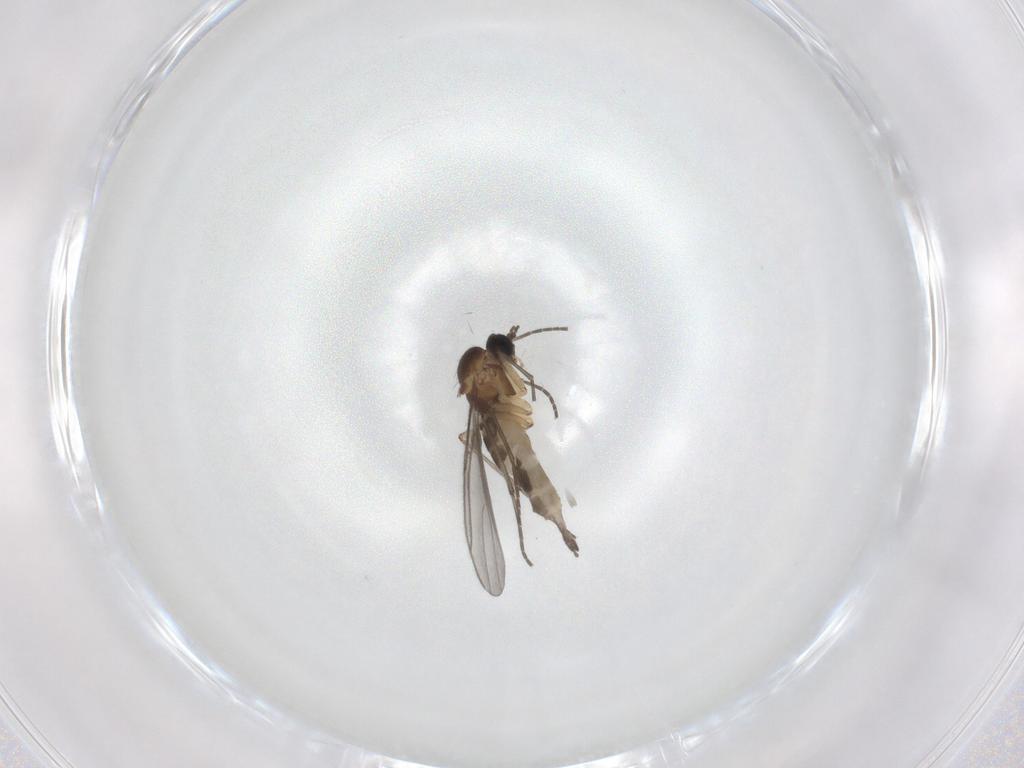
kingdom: Animalia
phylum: Arthropoda
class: Insecta
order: Diptera
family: Sciaridae
